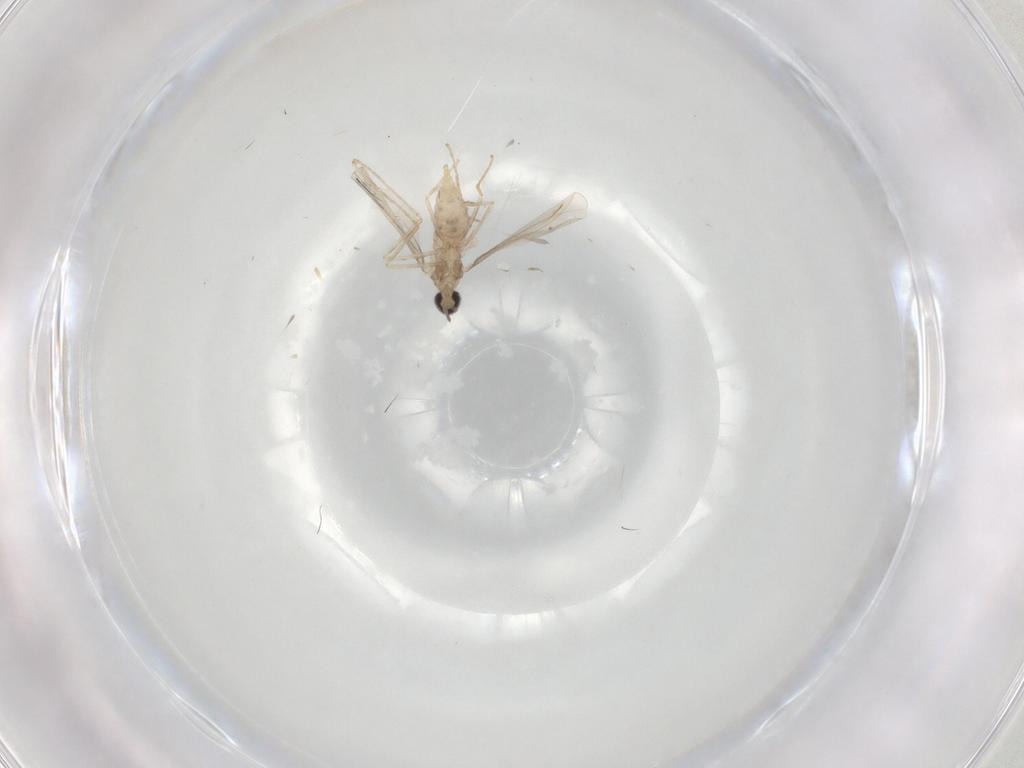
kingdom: Animalia
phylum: Arthropoda
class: Insecta
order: Diptera
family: Cecidomyiidae
